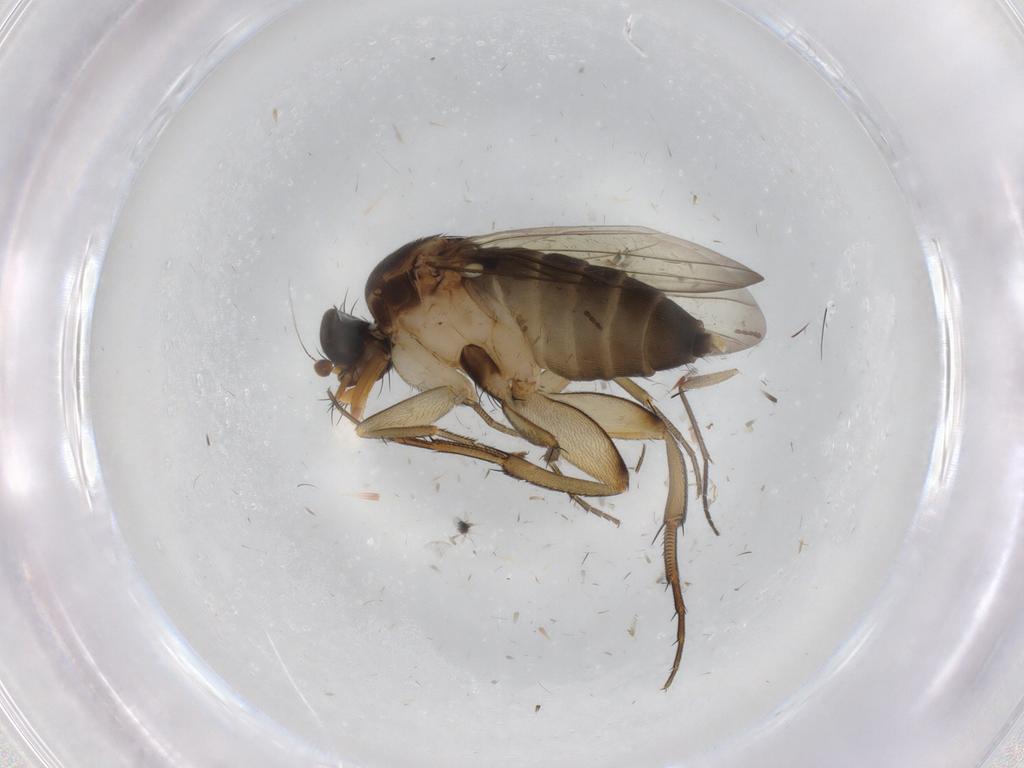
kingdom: Animalia
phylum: Arthropoda
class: Insecta
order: Diptera
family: Phoridae
